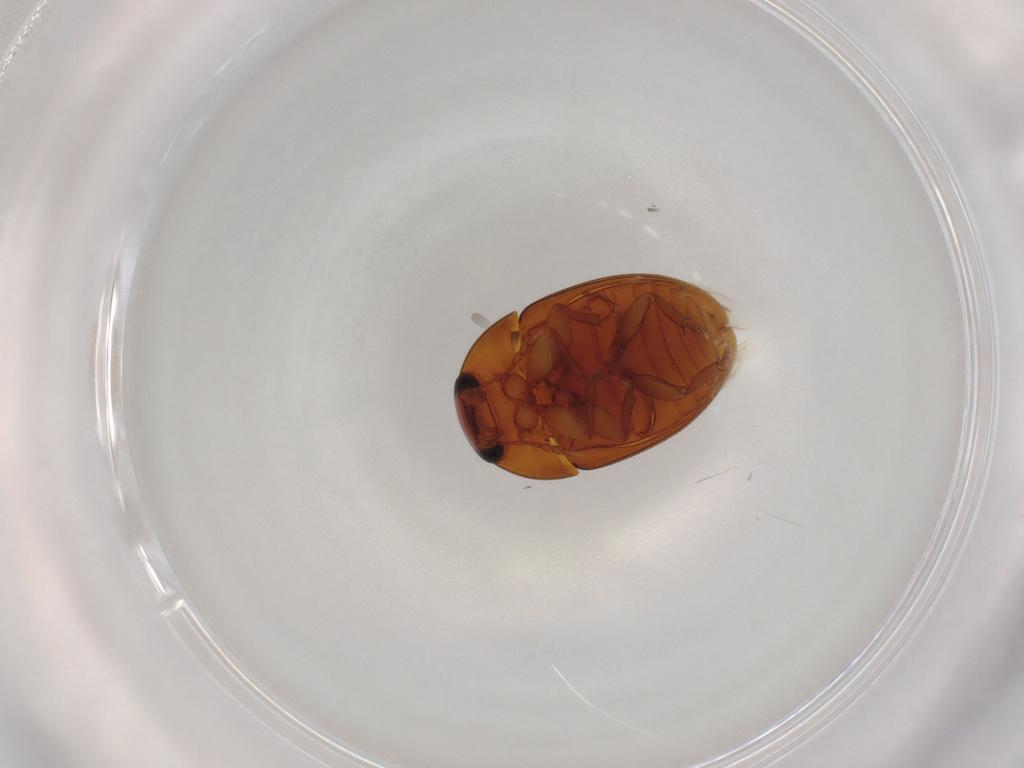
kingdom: Animalia
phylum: Arthropoda
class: Insecta
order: Coleoptera
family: Phalacridae
